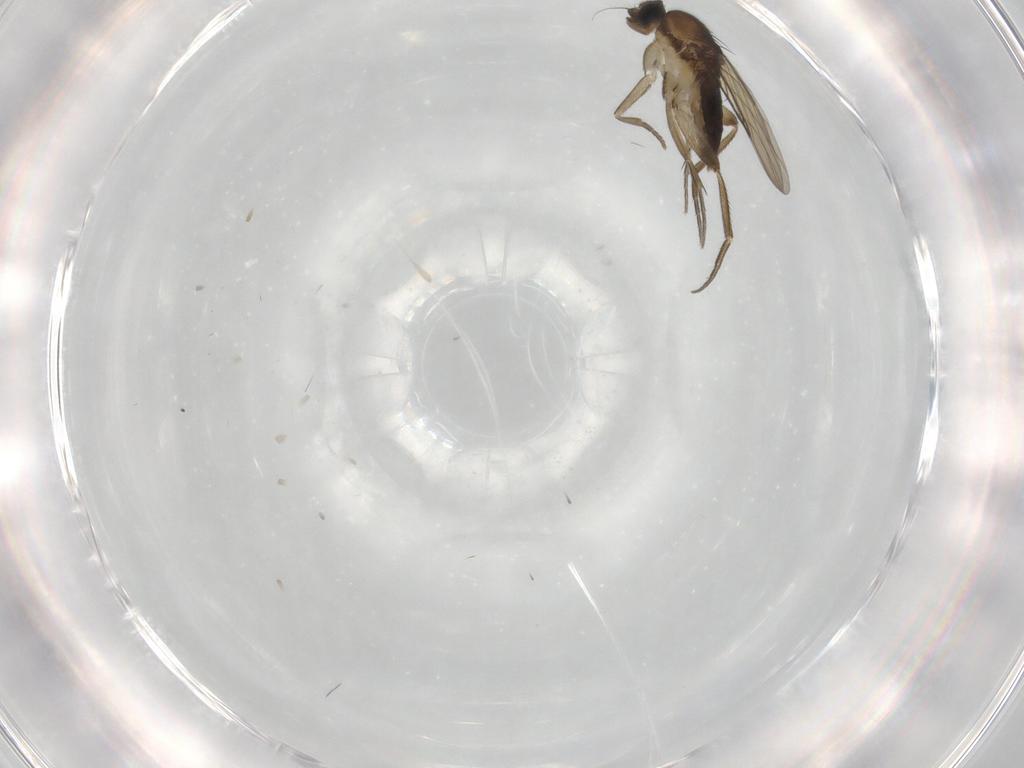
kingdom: Animalia
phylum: Arthropoda
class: Insecta
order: Diptera
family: Phoridae
